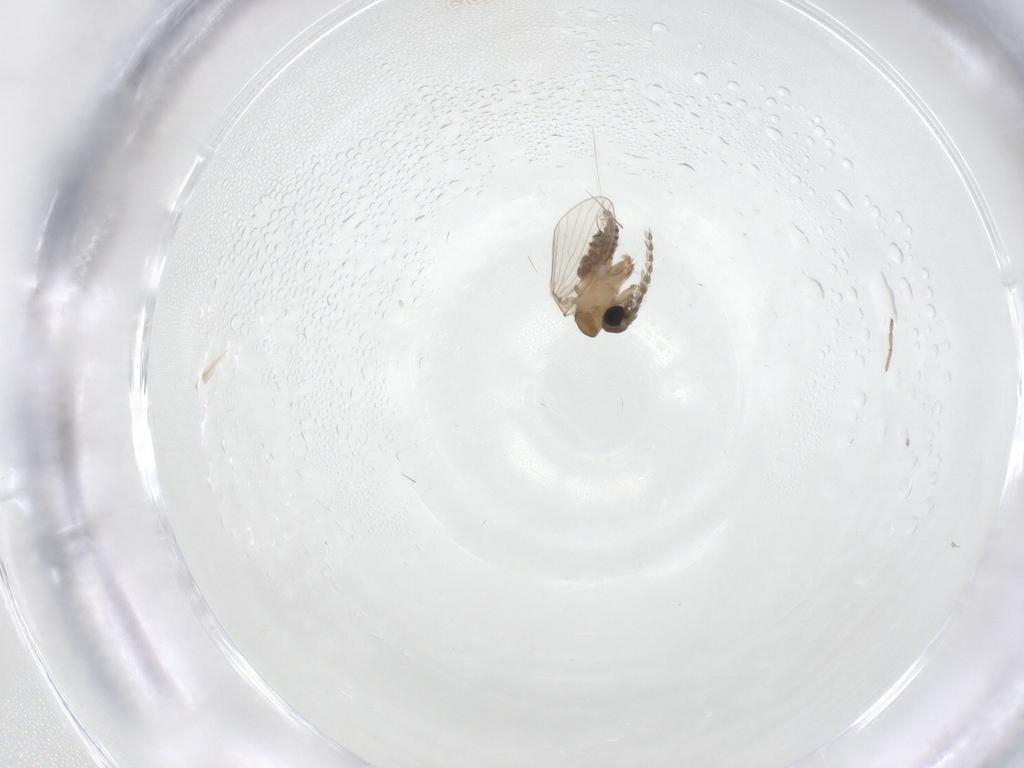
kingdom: Animalia
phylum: Arthropoda
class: Insecta
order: Diptera
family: Cecidomyiidae
